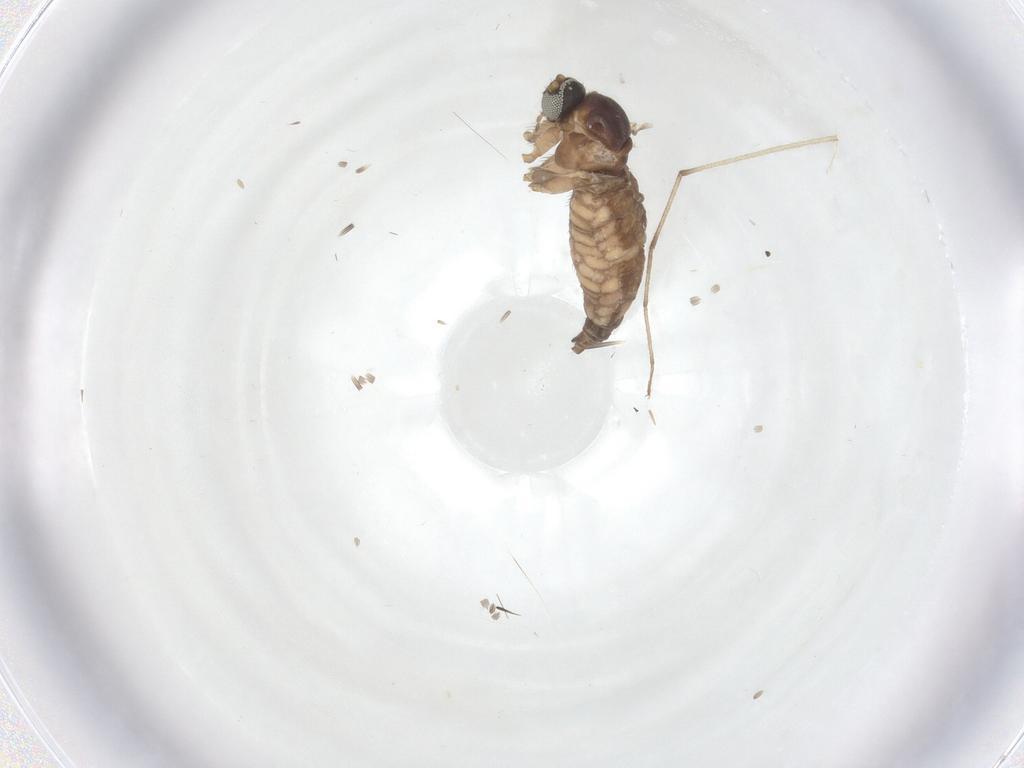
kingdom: Animalia
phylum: Arthropoda
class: Insecta
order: Diptera
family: Chironomidae
